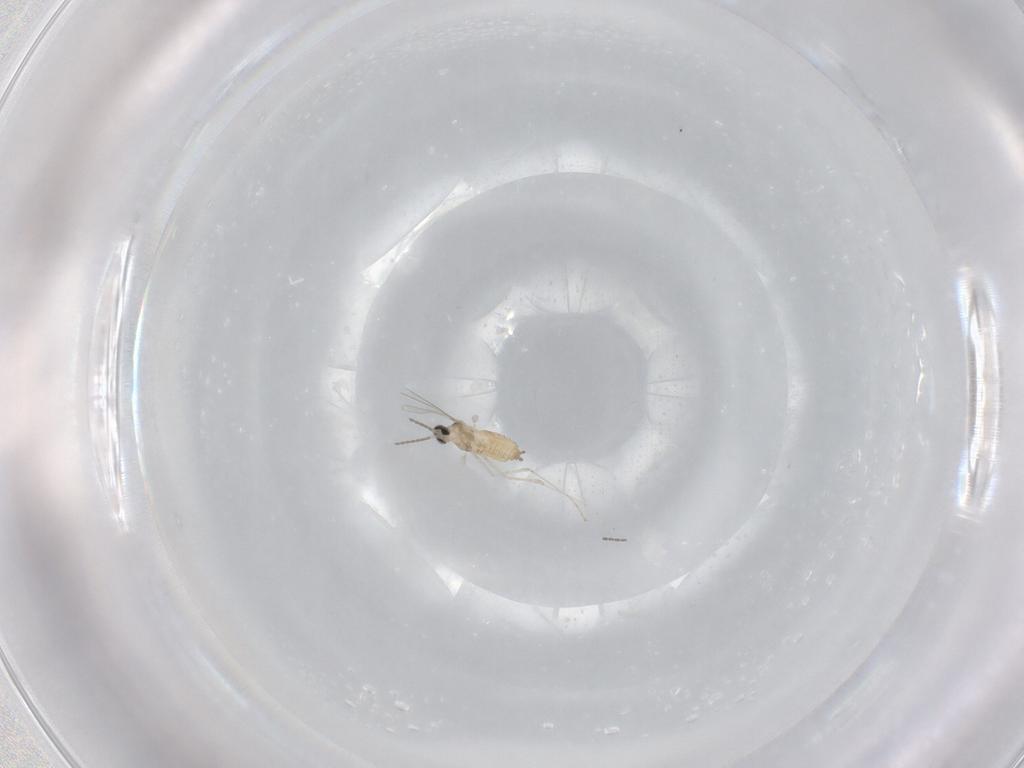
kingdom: Animalia
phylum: Arthropoda
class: Insecta
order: Diptera
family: Cecidomyiidae
